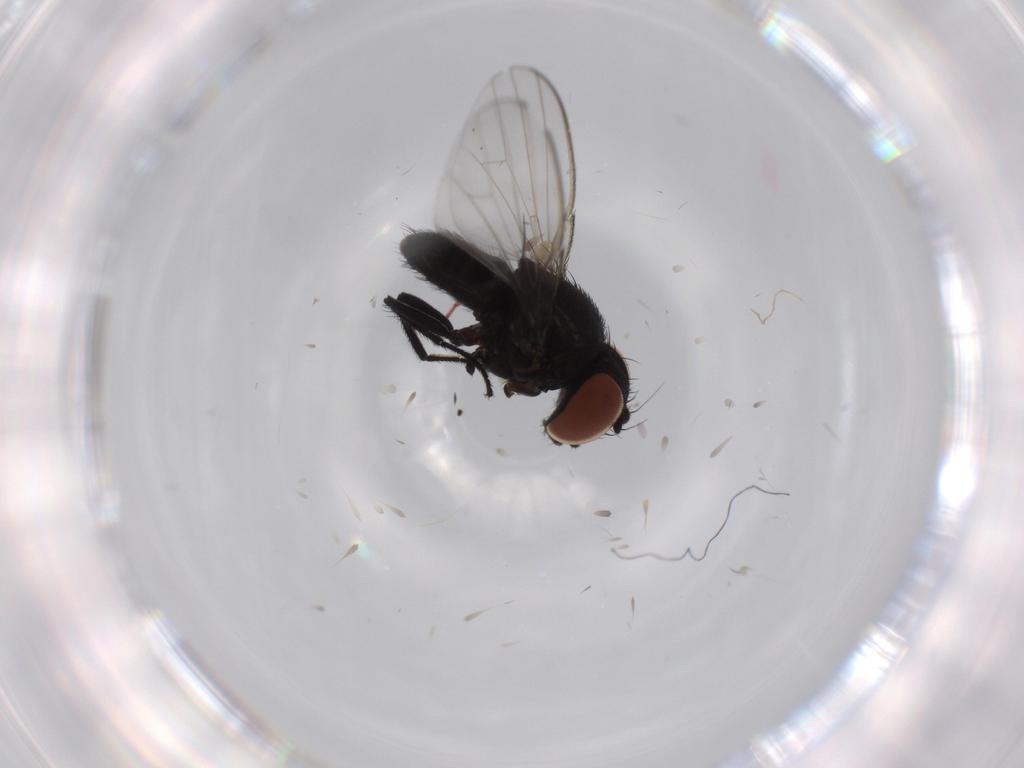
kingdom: Animalia
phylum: Arthropoda
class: Insecta
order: Diptera
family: Milichiidae
